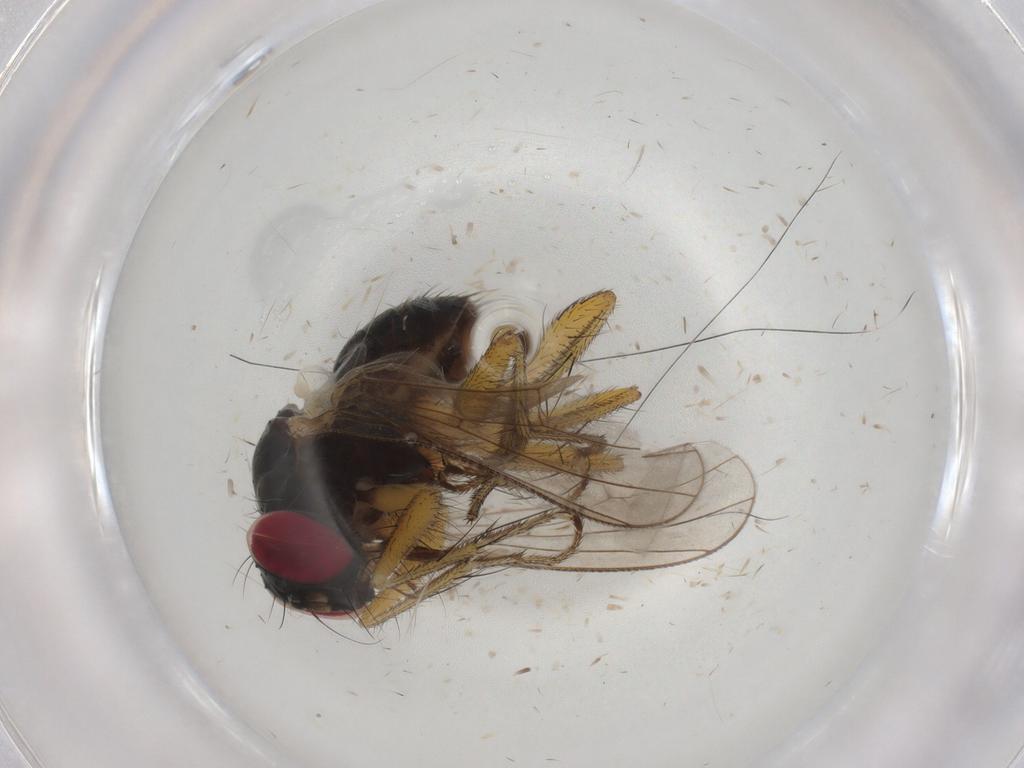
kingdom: Animalia
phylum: Arthropoda
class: Insecta
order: Diptera
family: Muscidae
